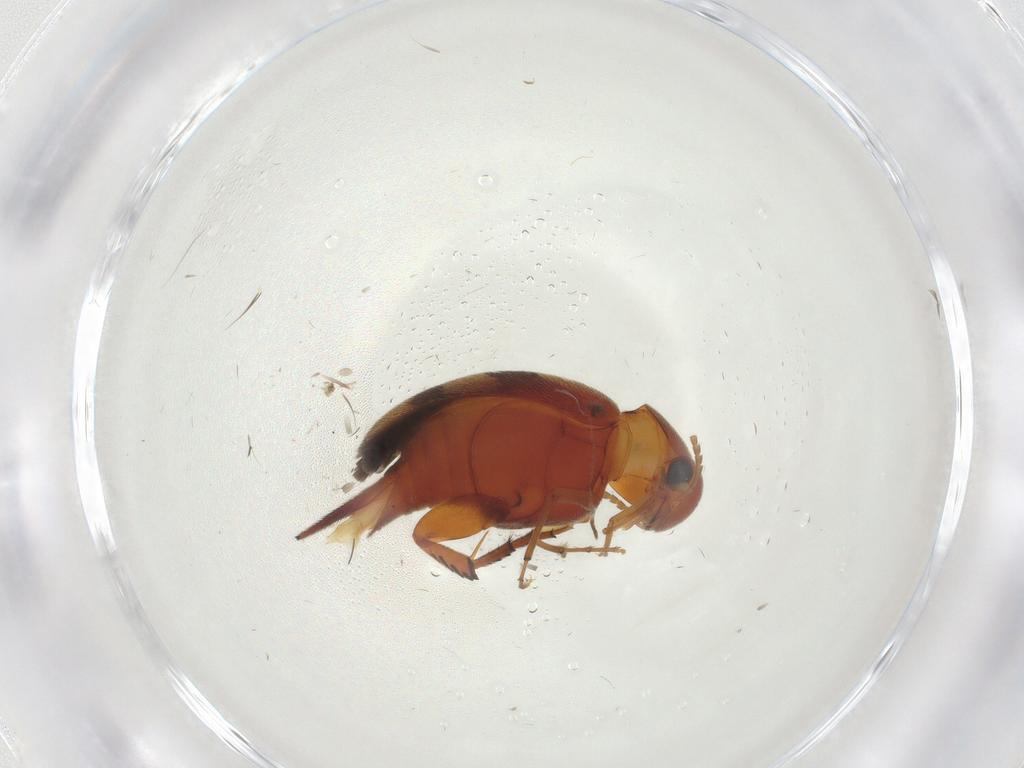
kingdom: Animalia
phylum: Arthropoda
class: Insecta
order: Coleoptera
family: Mordellidae
